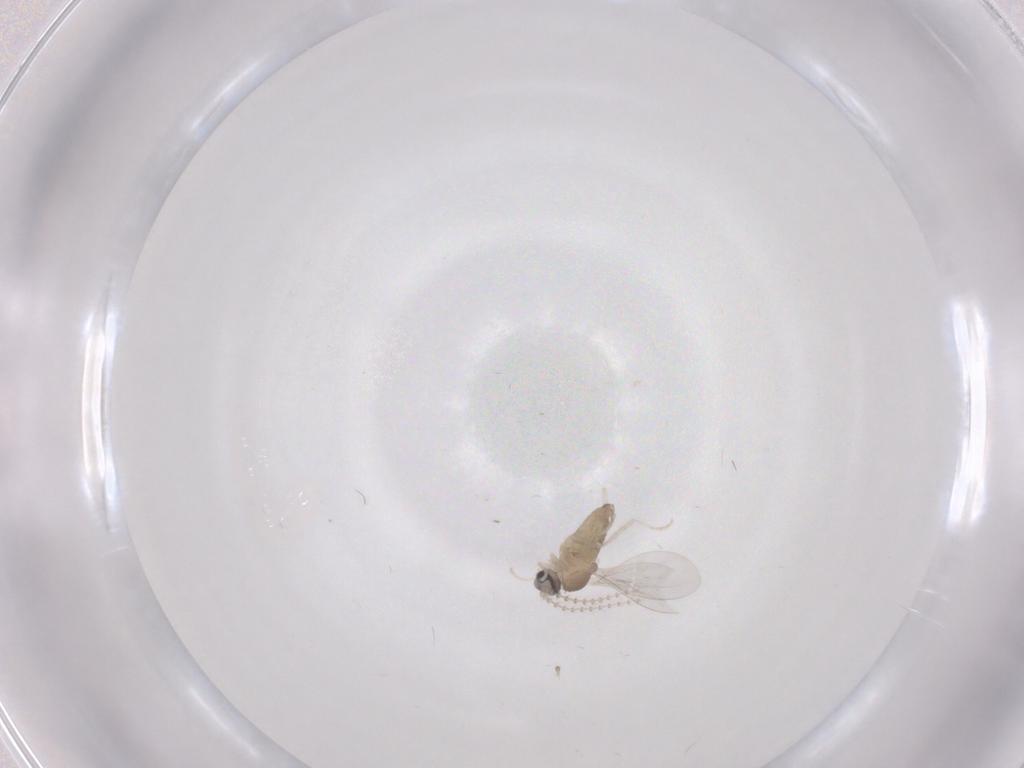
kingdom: Animalia
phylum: Arthropoda
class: Insecta
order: Diptera
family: Cecidomyiidae
